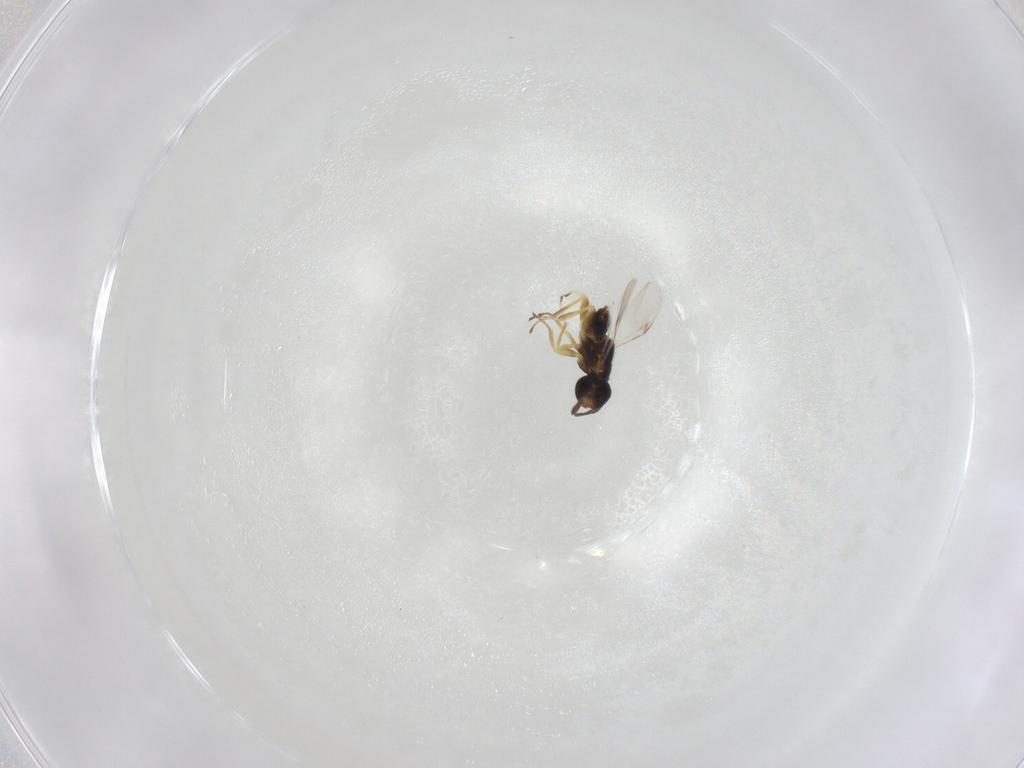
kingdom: Animalia
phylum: Arthropoda
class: Insecta
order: Hymenoptera
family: Encyrtidae
